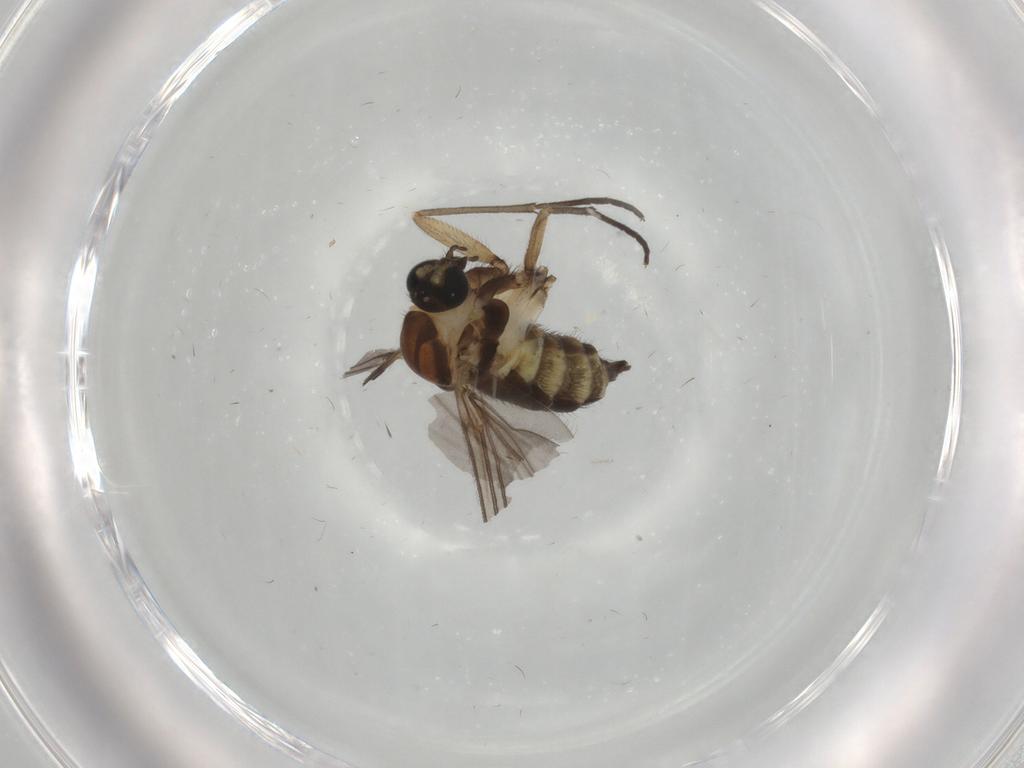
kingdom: Animalia
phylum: Arthropoda
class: Insecta
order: Diptera
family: Sciaridae
